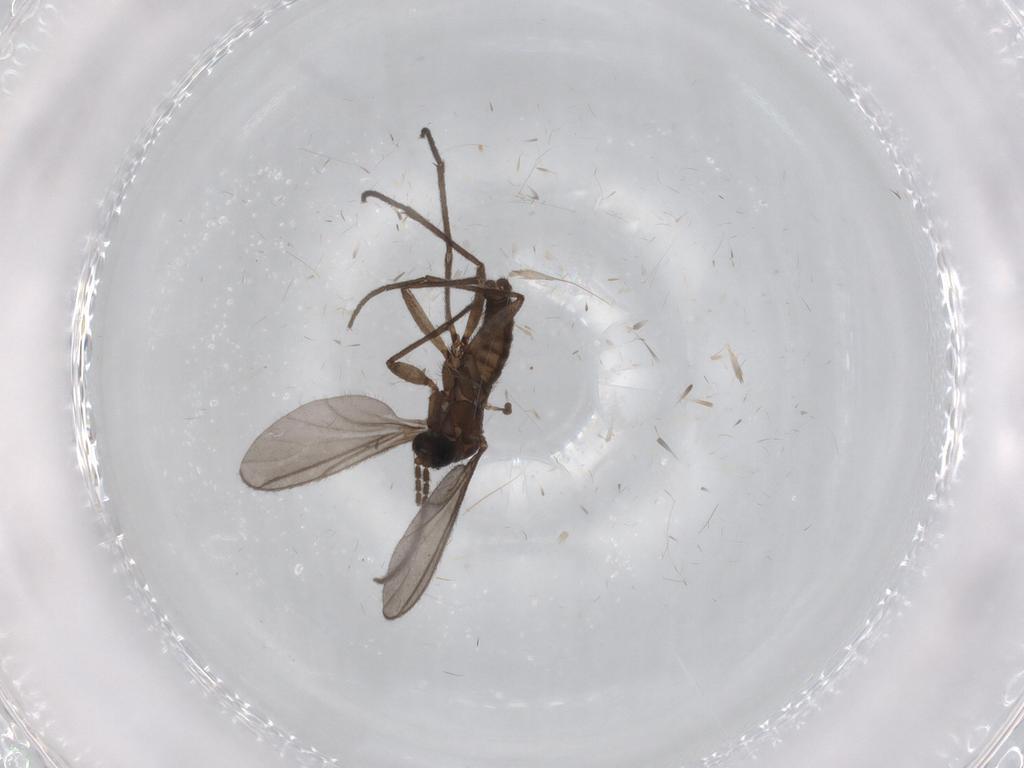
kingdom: Animalia
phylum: Arthropoda
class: Insecta
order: Diptera
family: Sciaridae
